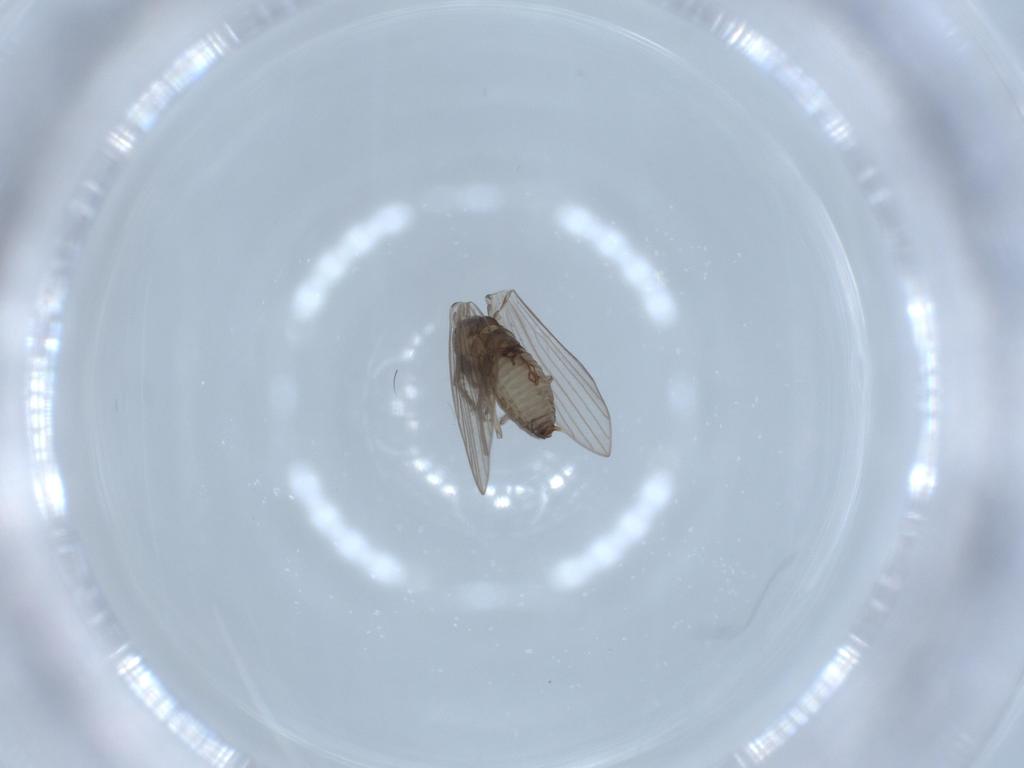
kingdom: Animalia
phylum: Arthropoda
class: Insecta
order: Diptera
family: Psychodidae
